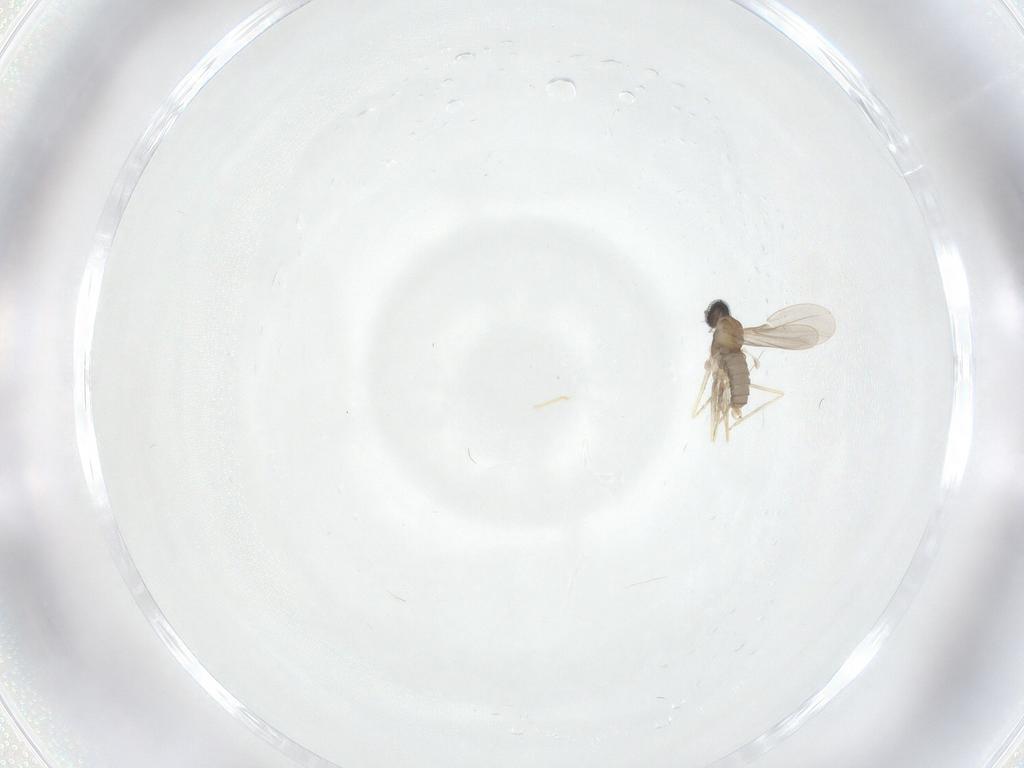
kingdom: Animalia
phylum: Arthropoda
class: Insecta
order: Diptera
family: Cecidomyiidae
